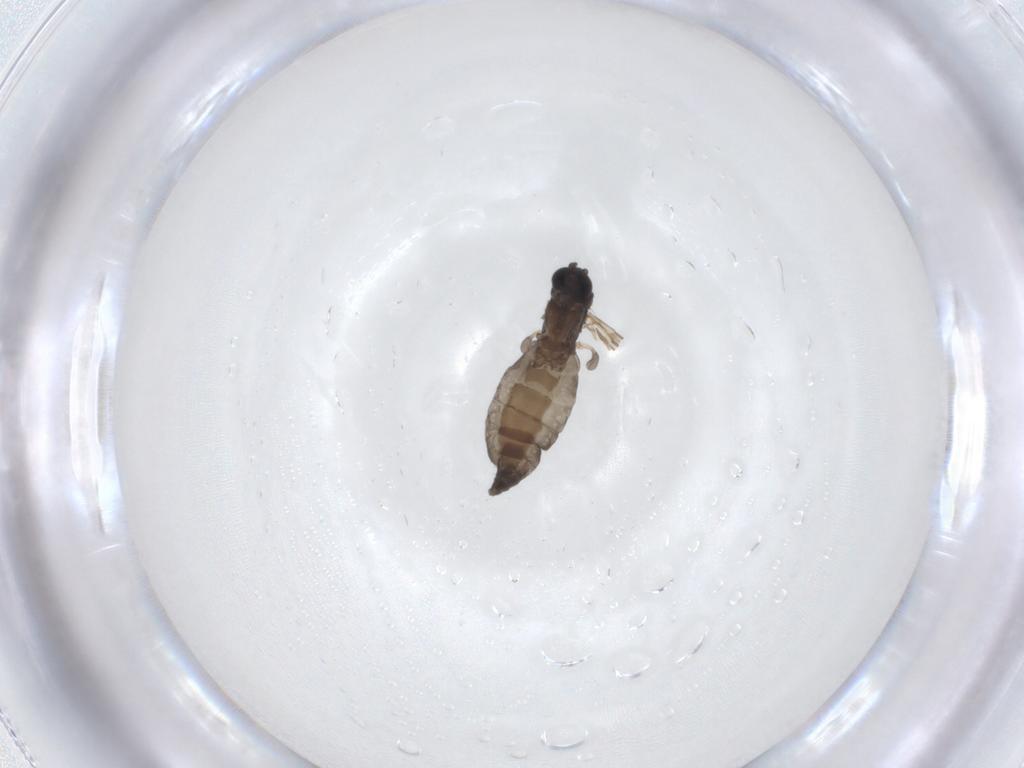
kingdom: Animalia
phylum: Arthropoda
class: Insecta
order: Diptera
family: Sciaridae
